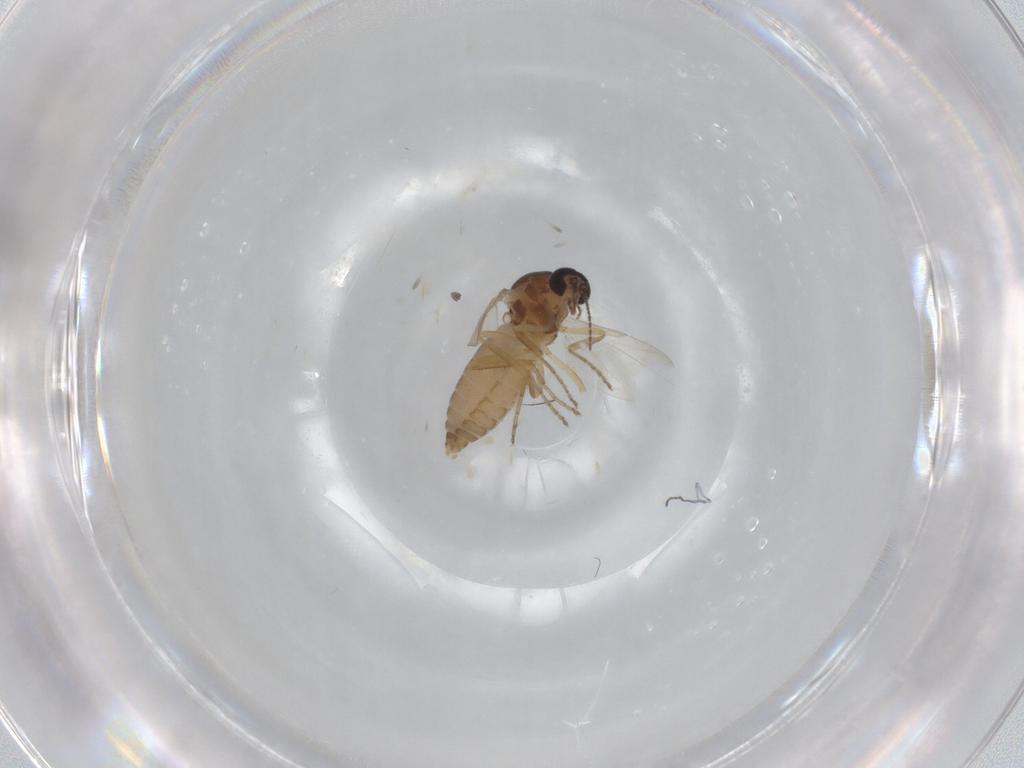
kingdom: Animalia
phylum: Arthropoda
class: Insecta
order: Diptera
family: Ceratopogonidae
